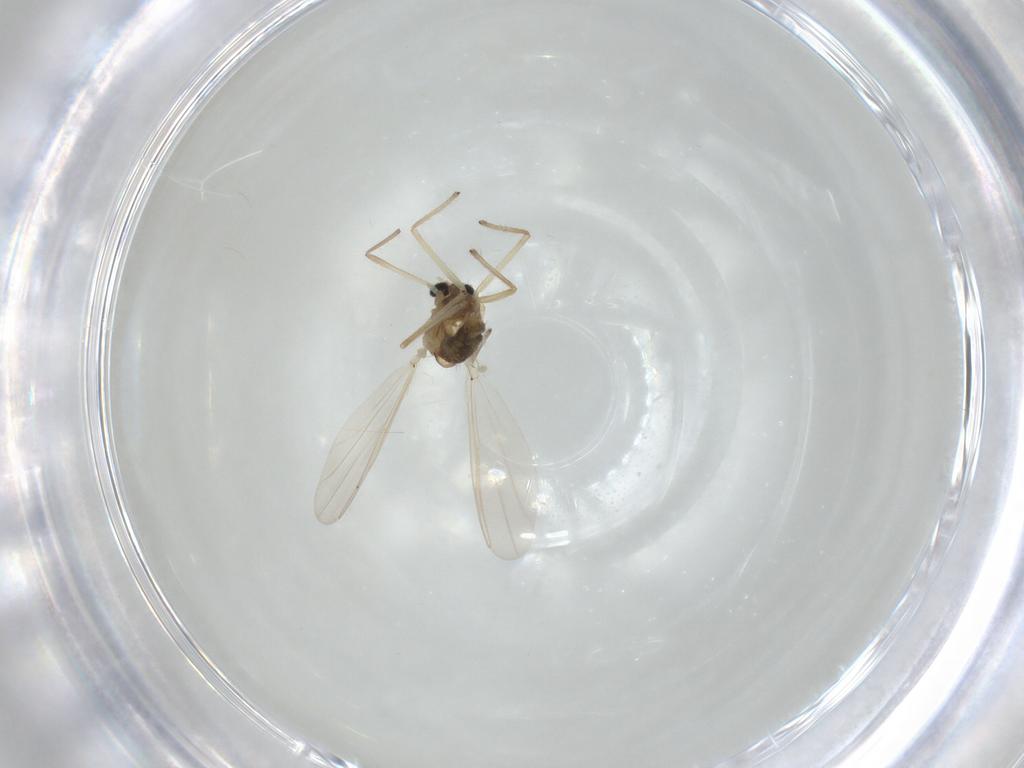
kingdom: Animalia
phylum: Arthropoda
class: Insecta
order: Diptera
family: Psychodidae
